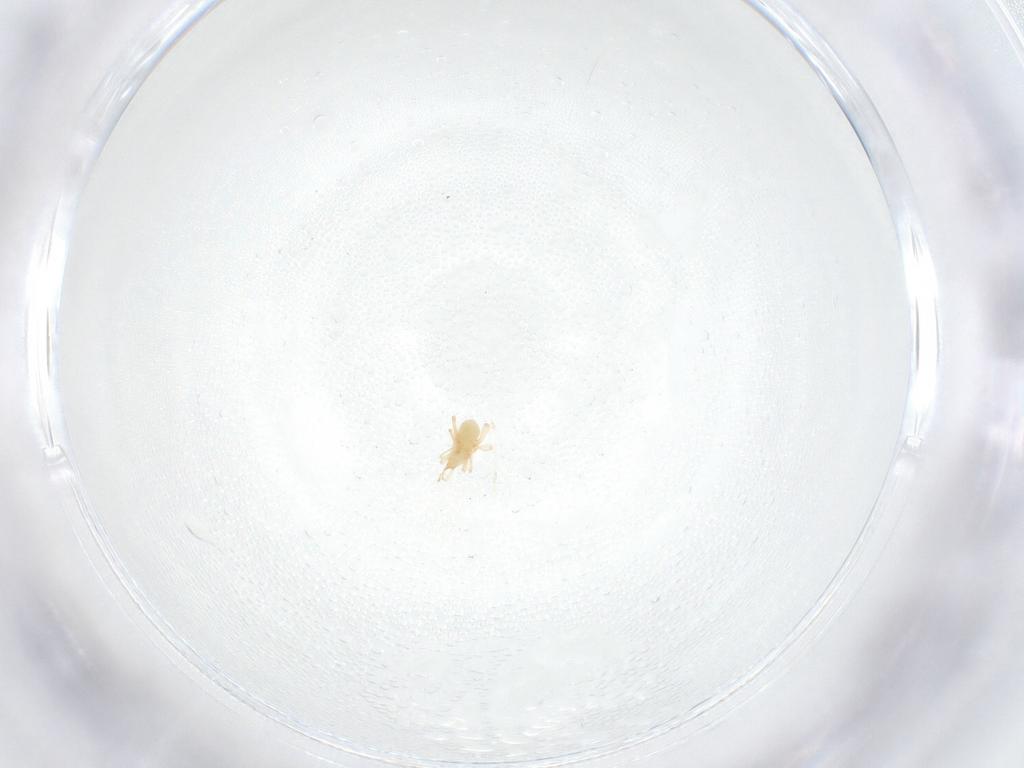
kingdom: Animalia
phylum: Arthropoda
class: Arachnida
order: Trombidiformes
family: Cunaxidae
